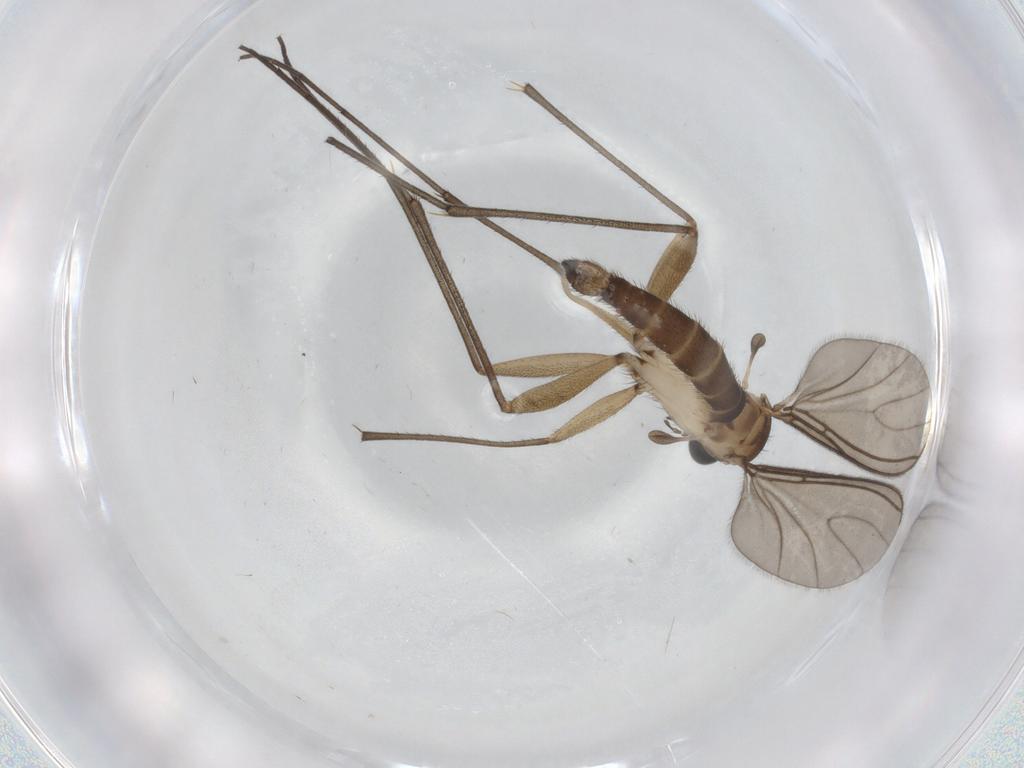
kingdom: Animalia
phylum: Arthropoda
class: Insecta
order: Diptera
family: Sciaridae
